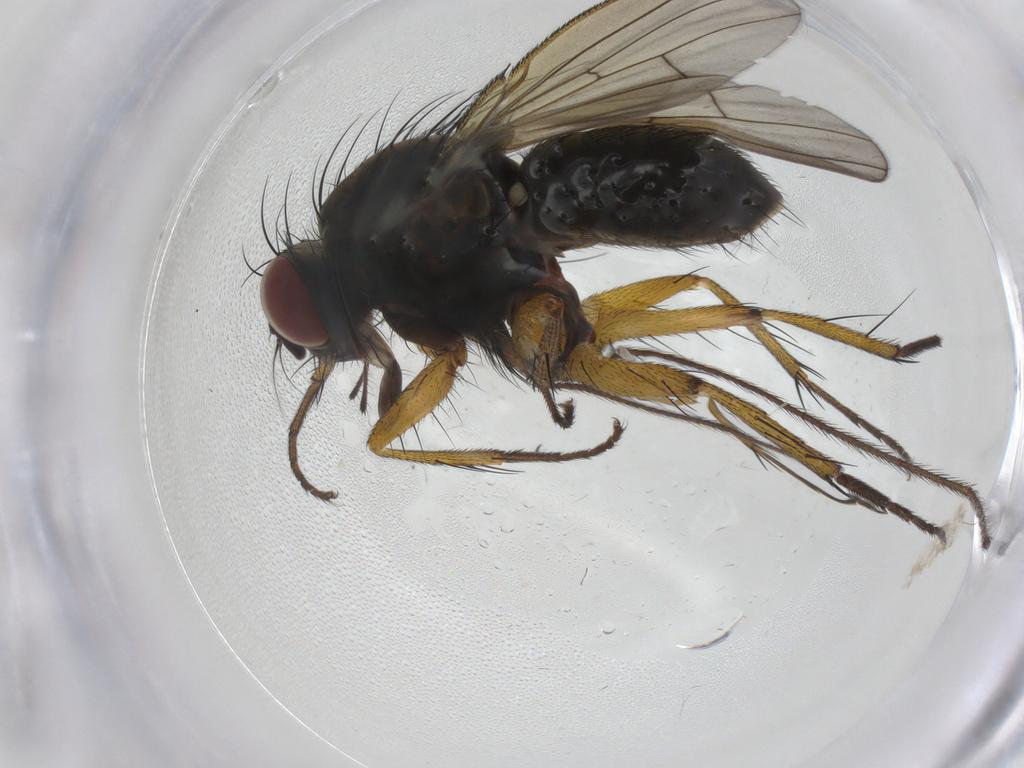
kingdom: Animalia
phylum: Arthropoda
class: Insecta
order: Diptera
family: Muscidae
